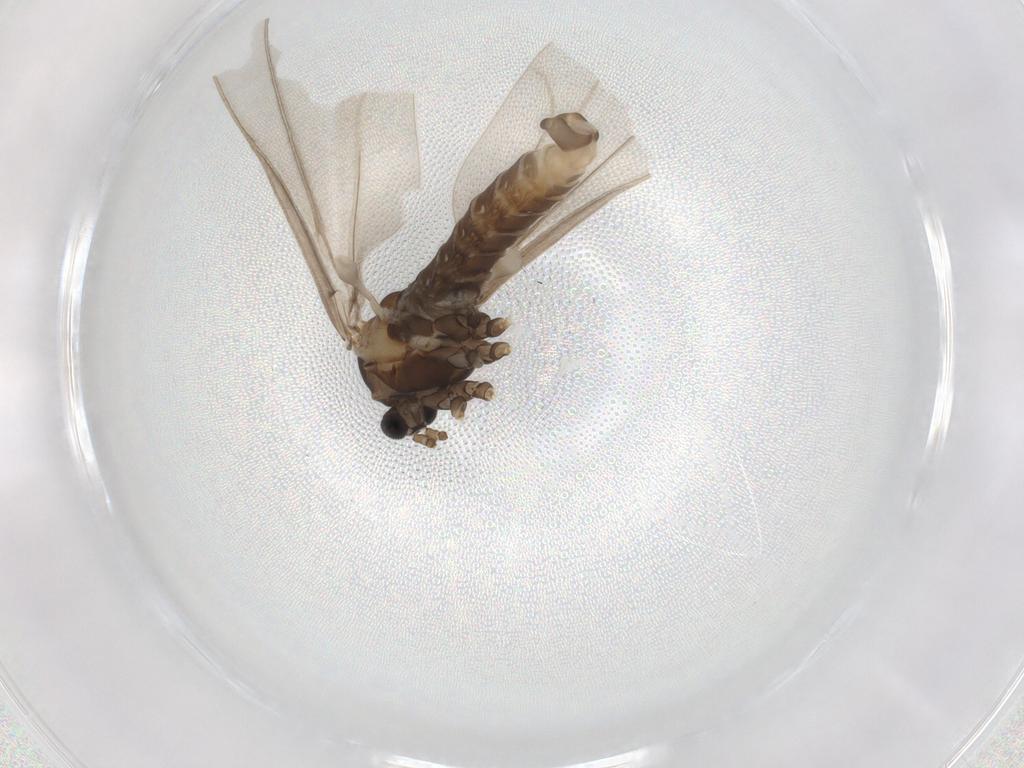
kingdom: Animalia
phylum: Arthropoda
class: Insecta
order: Diptera
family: Cecidomyiidae
